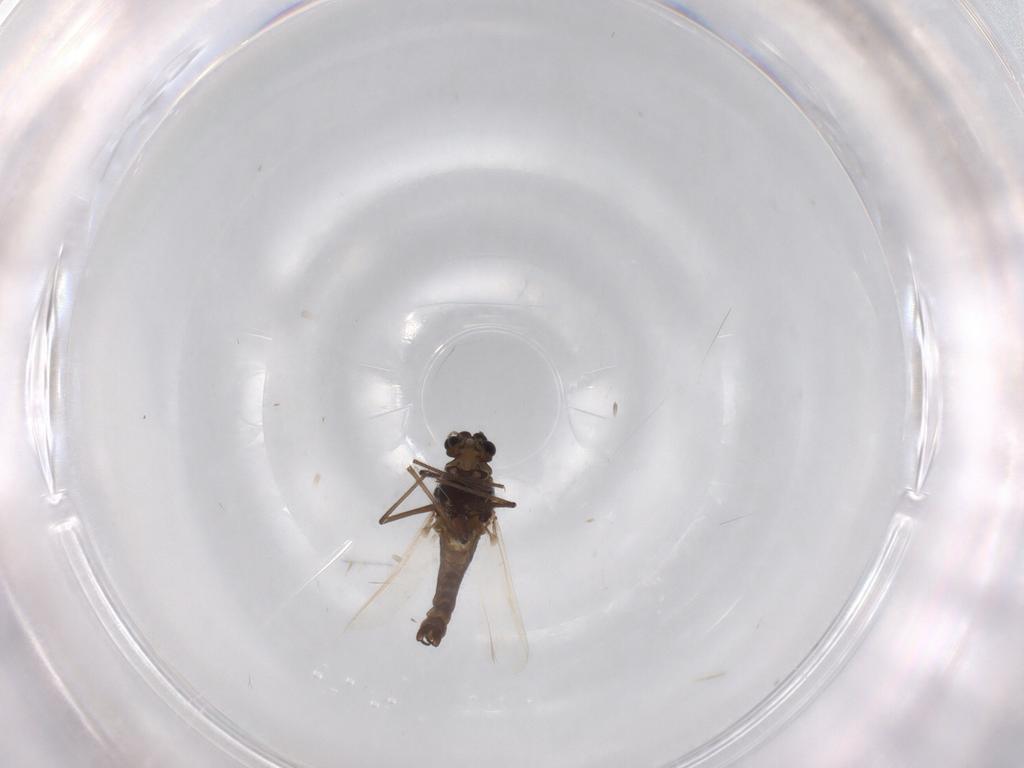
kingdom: Animalia
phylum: Arthropoda
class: Insecta
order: Diptera
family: Chironomidae
